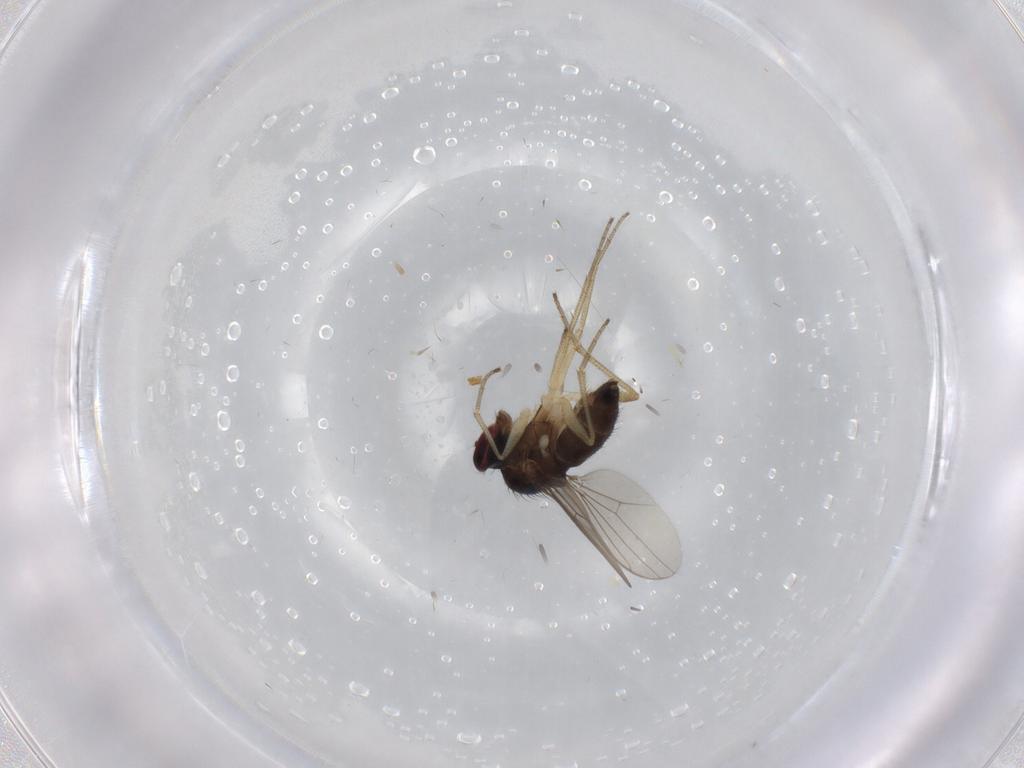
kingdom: Animalia
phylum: Arthropoda
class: Insecta
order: Diptera
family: Dolichopodidae
